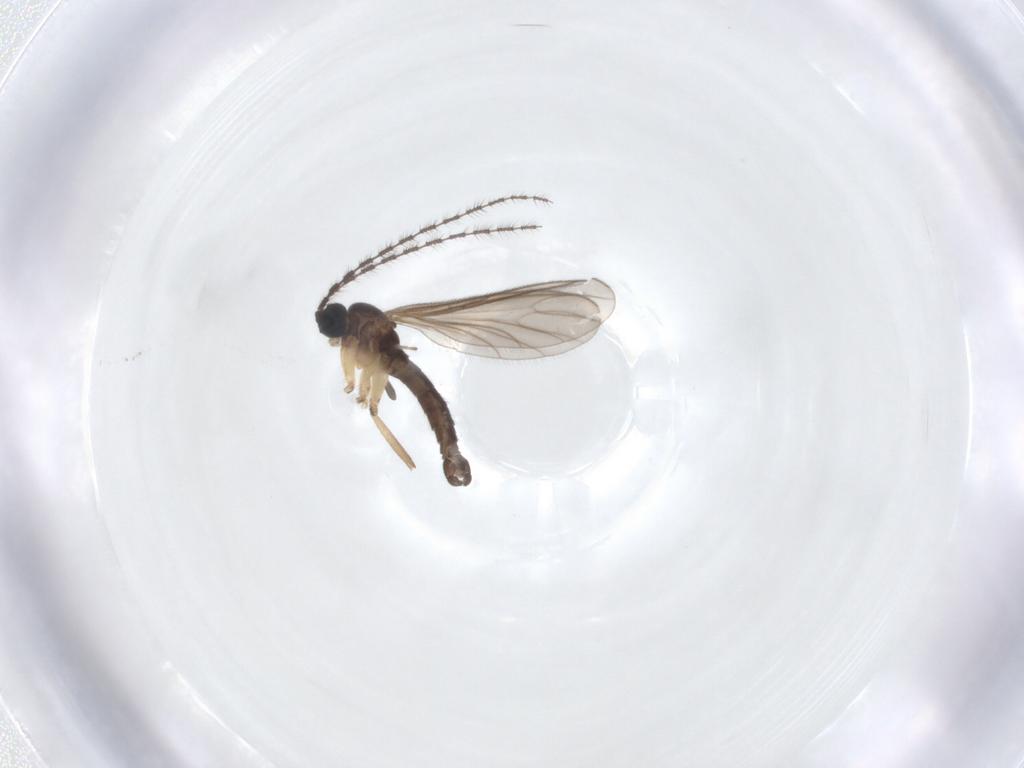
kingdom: Animalia
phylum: Arthropoda
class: Insecta
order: Diptera
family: Sciaridae
